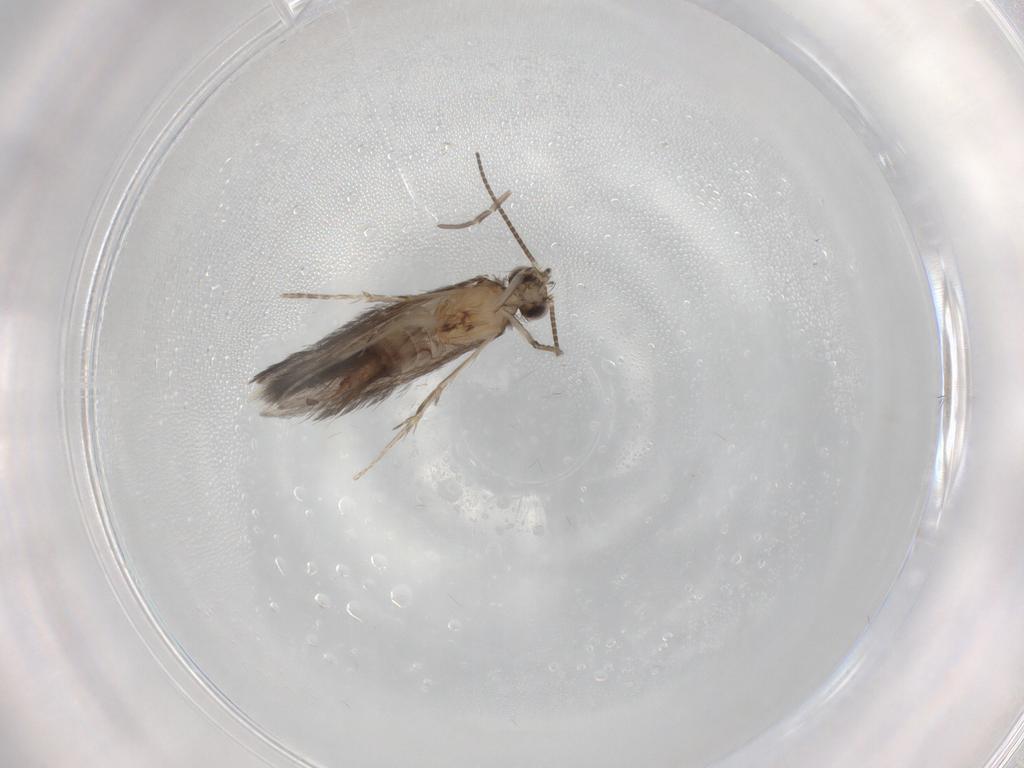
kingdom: Animalia
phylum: Arthropoda
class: Insecta
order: Trichoptera
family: Hydroptilidae
